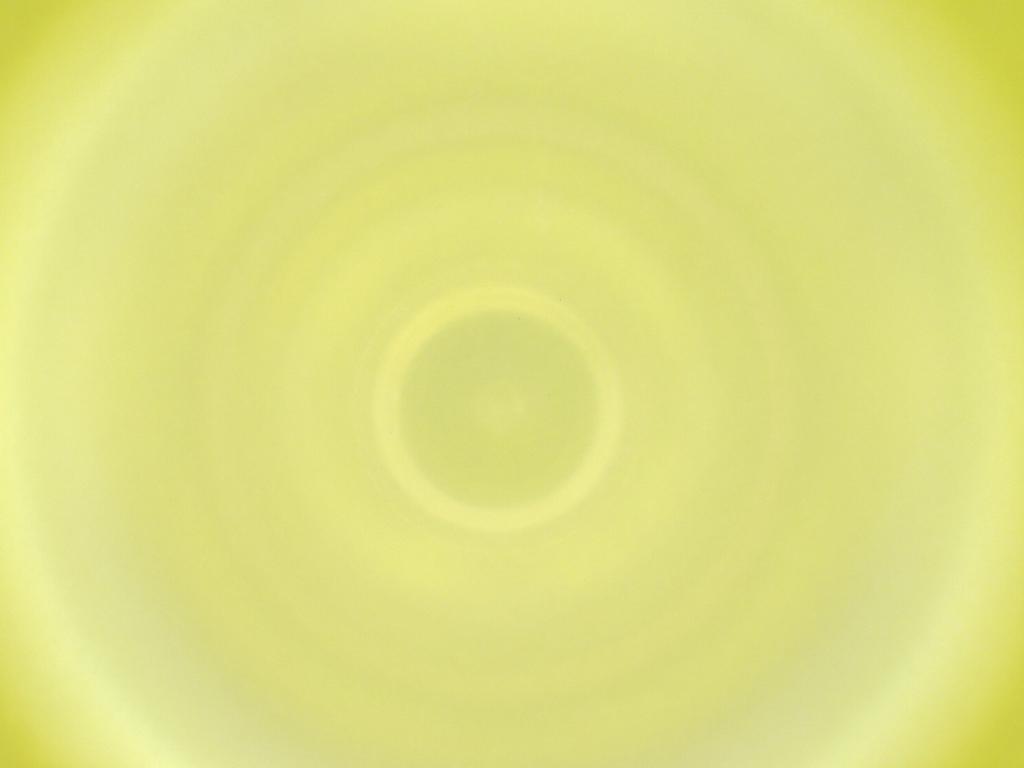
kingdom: Animalia
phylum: Arthropoda
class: Insecta
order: Diptera
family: Cecidomyiidae
